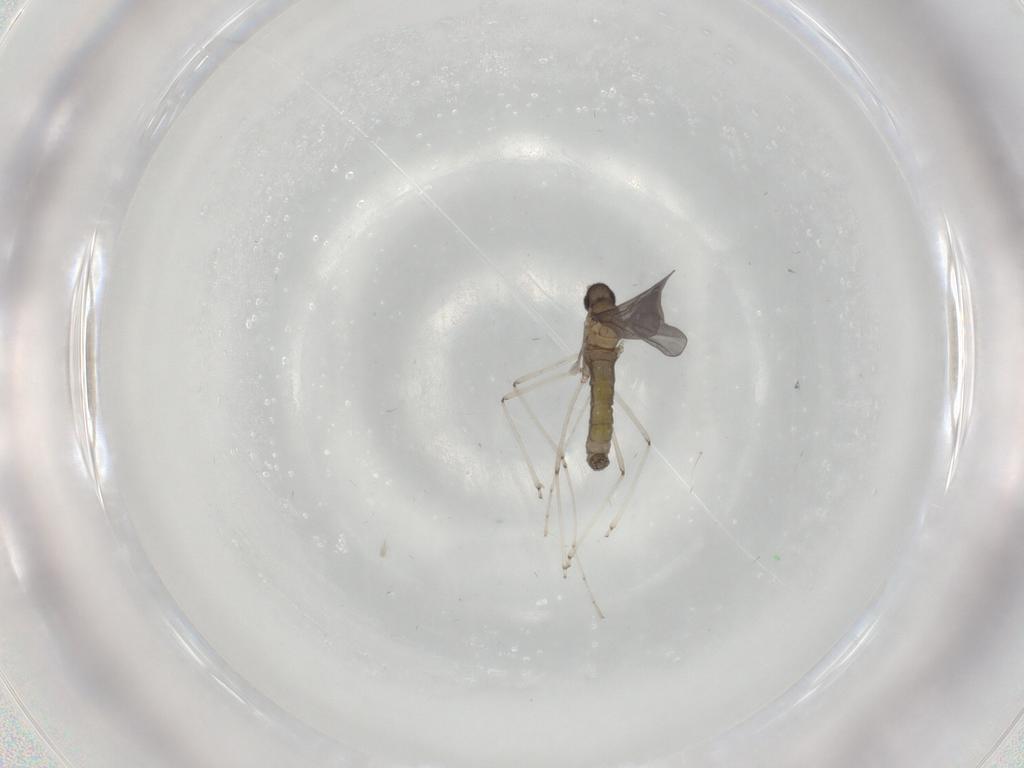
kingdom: Animalia
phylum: Arthropoda
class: Insecta
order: Diptera
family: Cecidomyiidae
